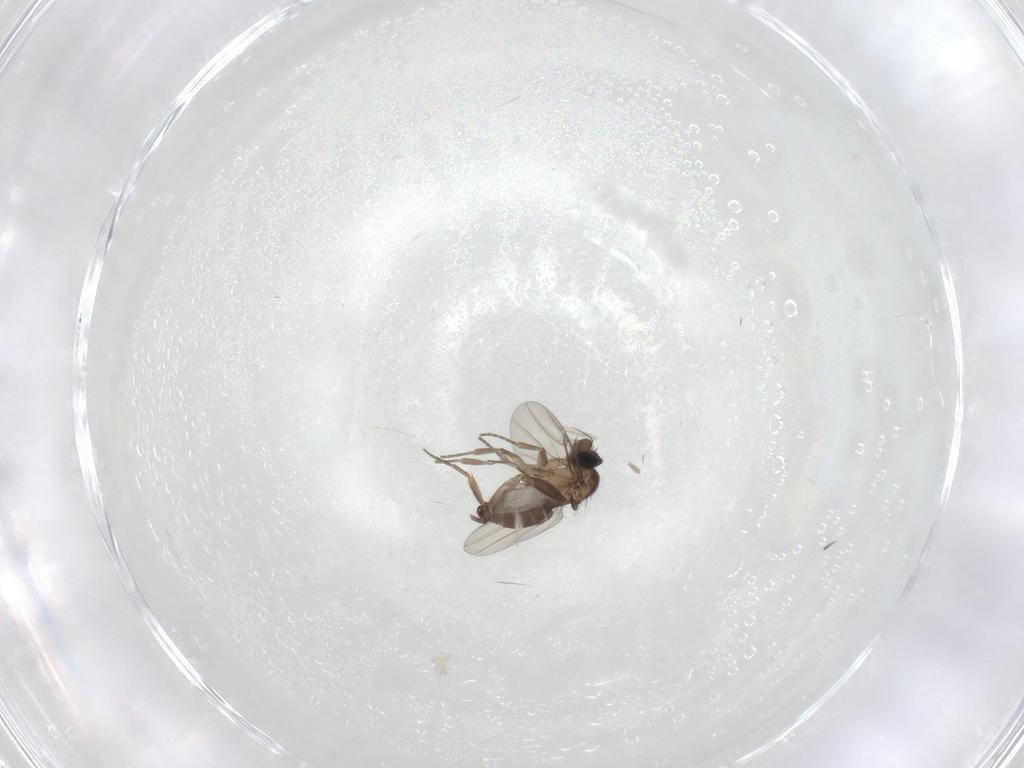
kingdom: Animalia
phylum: Arthropoda
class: Insecta
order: Diptera
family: Phoridae
